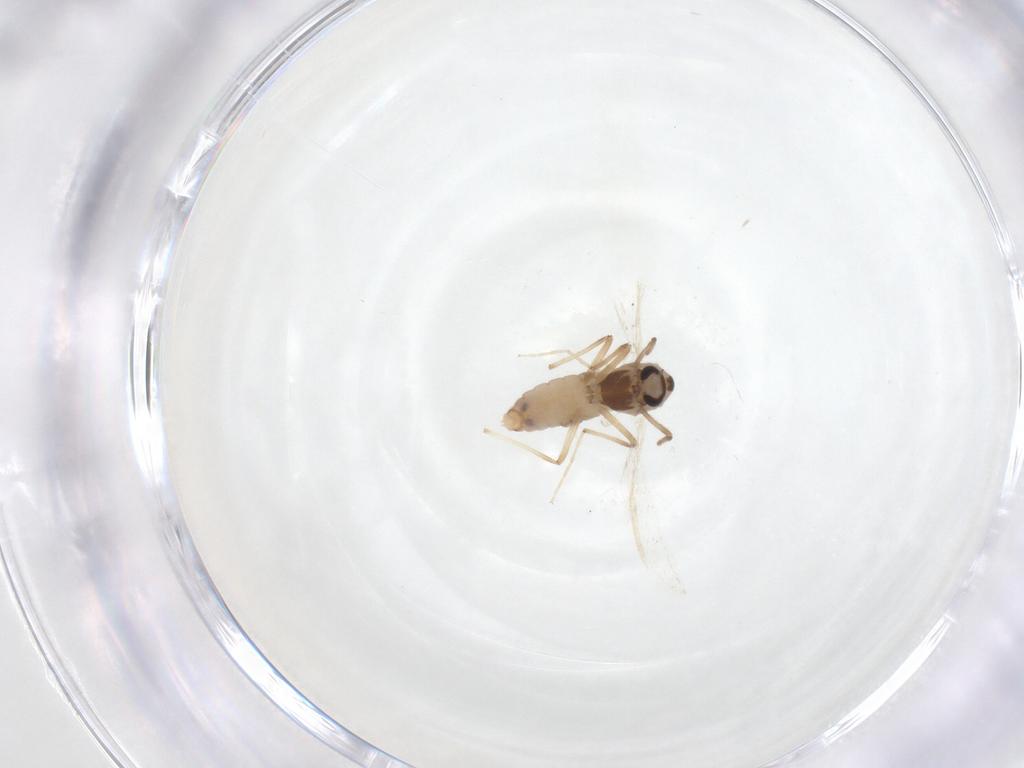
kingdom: Animalia
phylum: Arthropoda
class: Insecta
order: Diptera
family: Chironomidae
